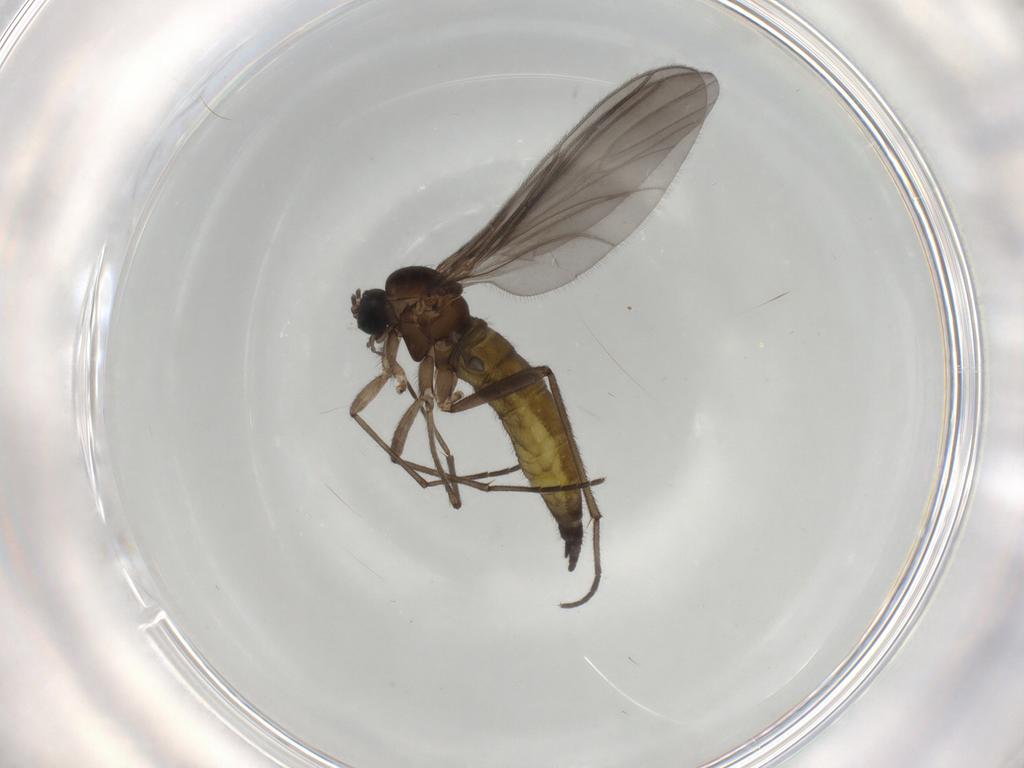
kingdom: Animalia
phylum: Arthropoda
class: Insecta
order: Diptera
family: Sciaridae
